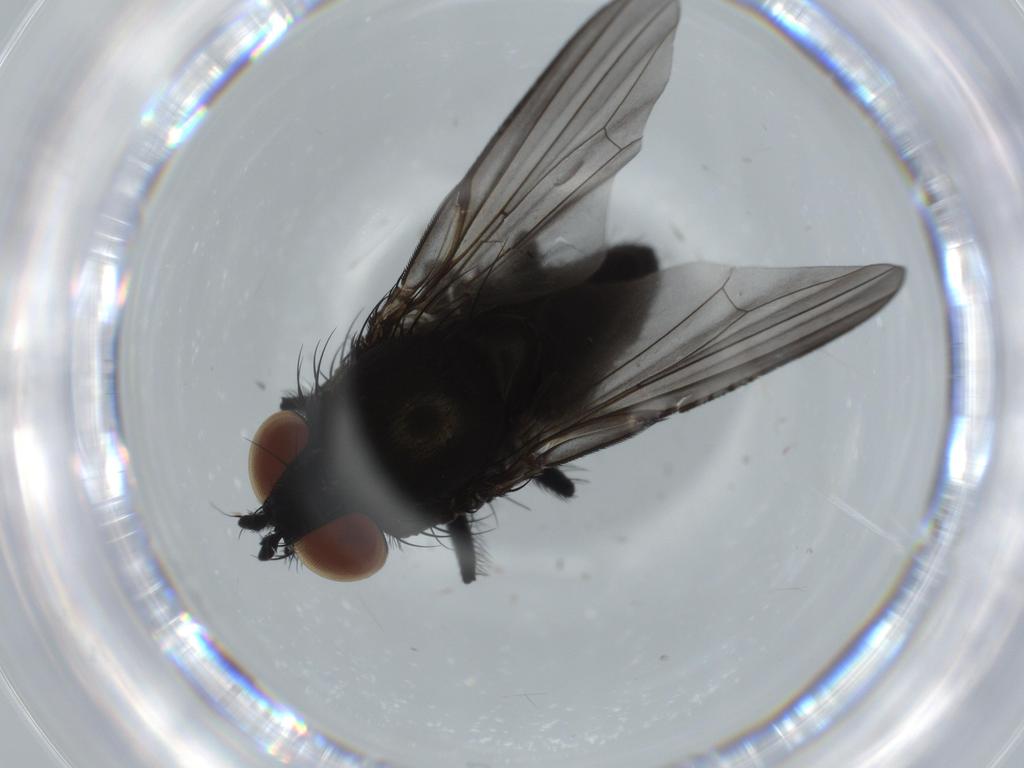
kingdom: Animalia
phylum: Arthropoda
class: Insecta
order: Diptera
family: Milichiidae
